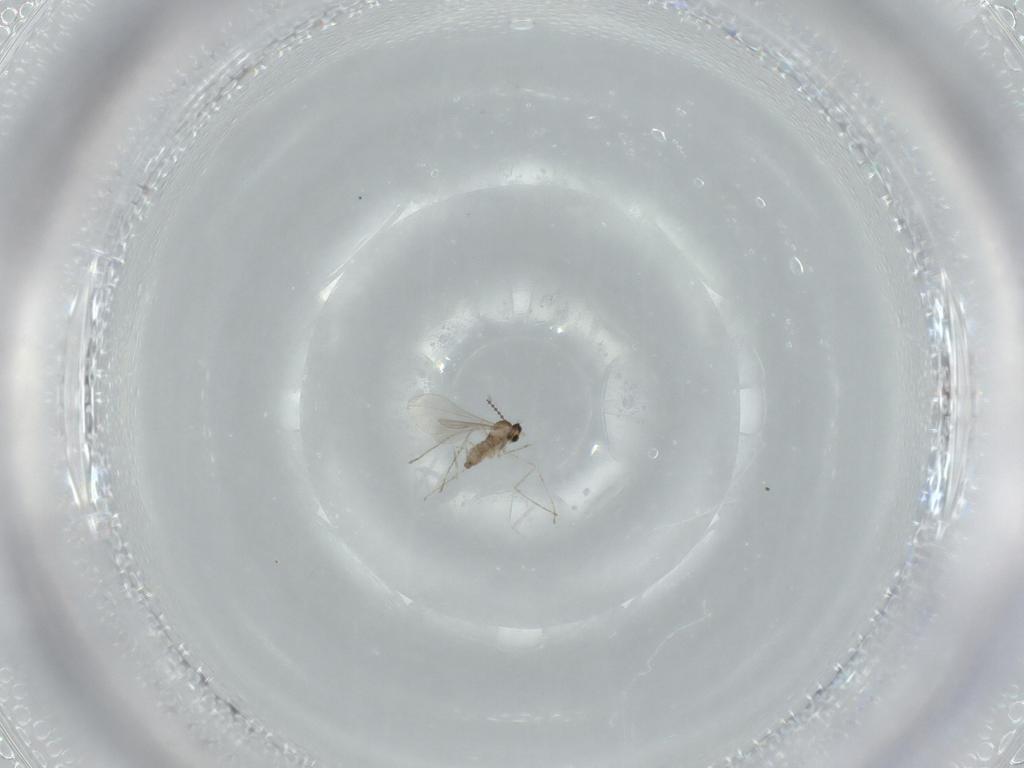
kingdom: Animalia
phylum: Arthropoda
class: Insecta
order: Diptera
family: Cecidomyiidae
